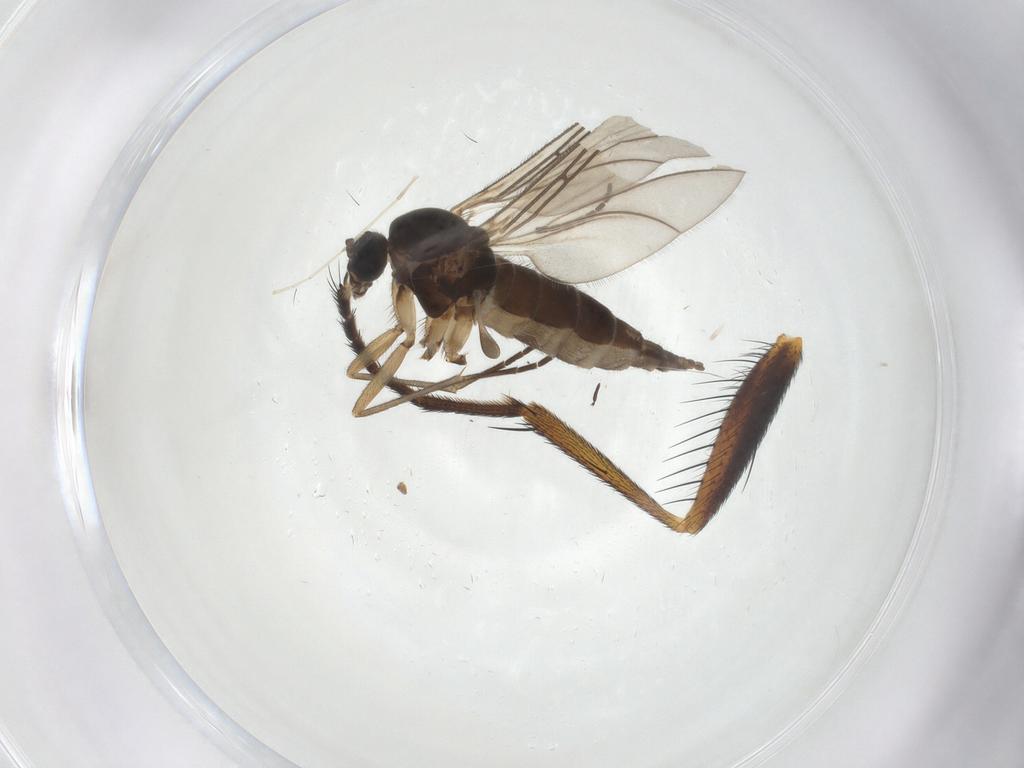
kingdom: Animalia
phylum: Arthropoda
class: Insecta
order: Diptera
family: Anthomyiidae
